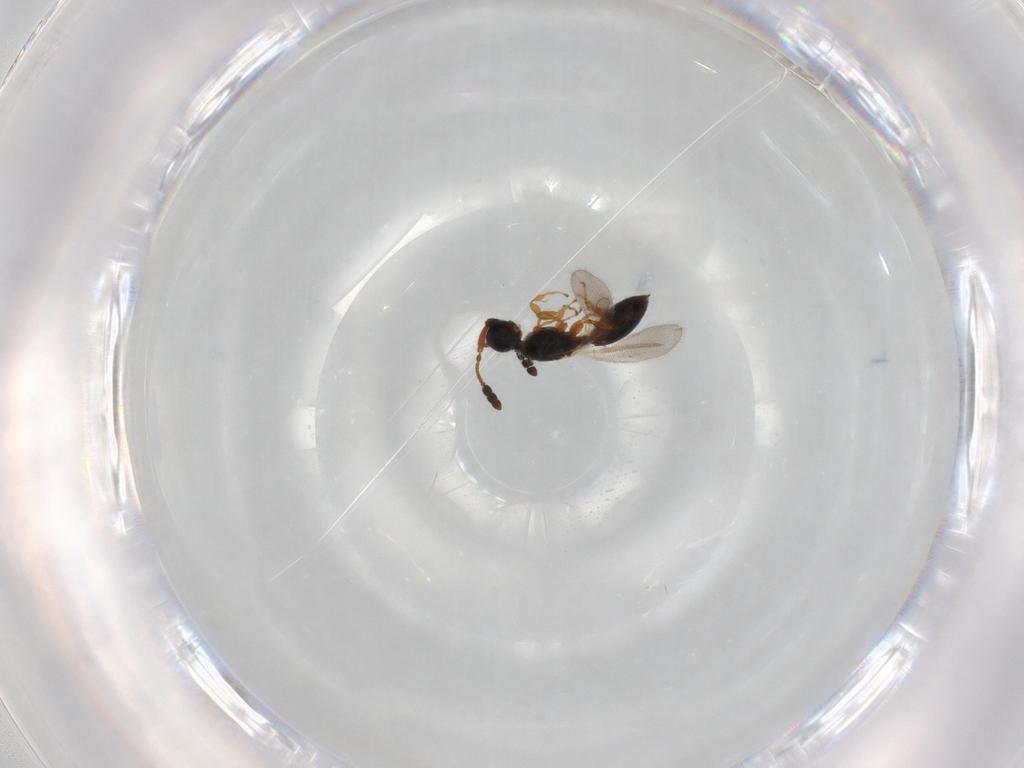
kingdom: Animalia
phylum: Arthropoda
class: Insecta
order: Hymenoptera
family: Diapriidae
